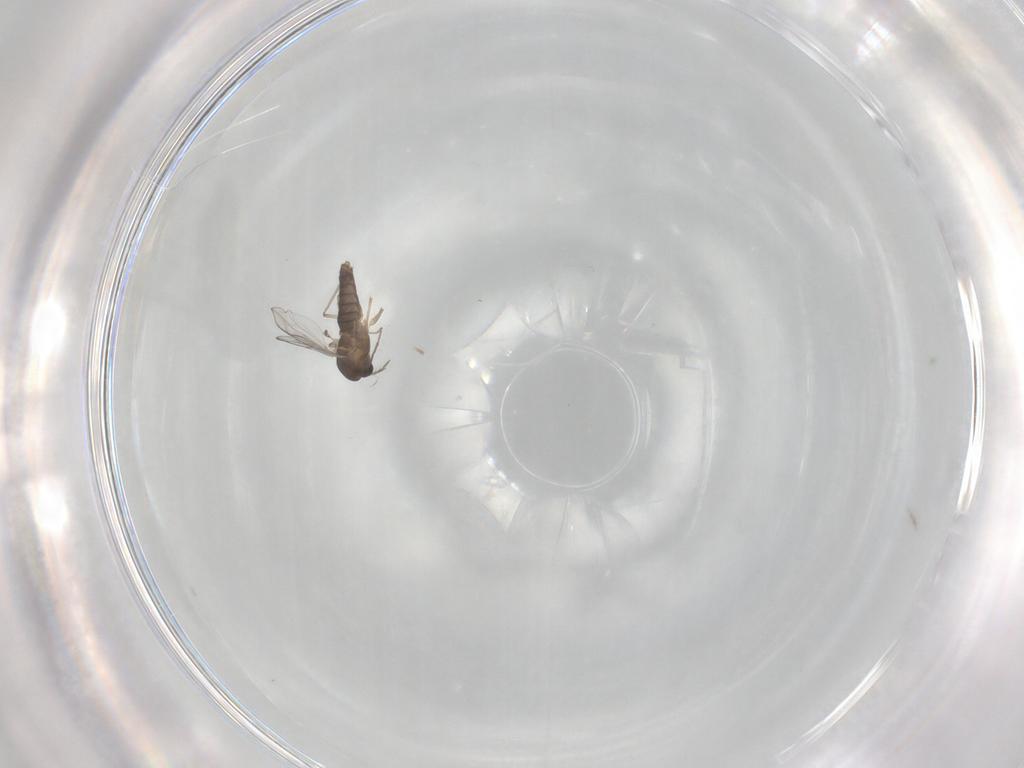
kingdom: Animalia
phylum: Arthropoda
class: Insecta
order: Diptera
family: Chironomidae
